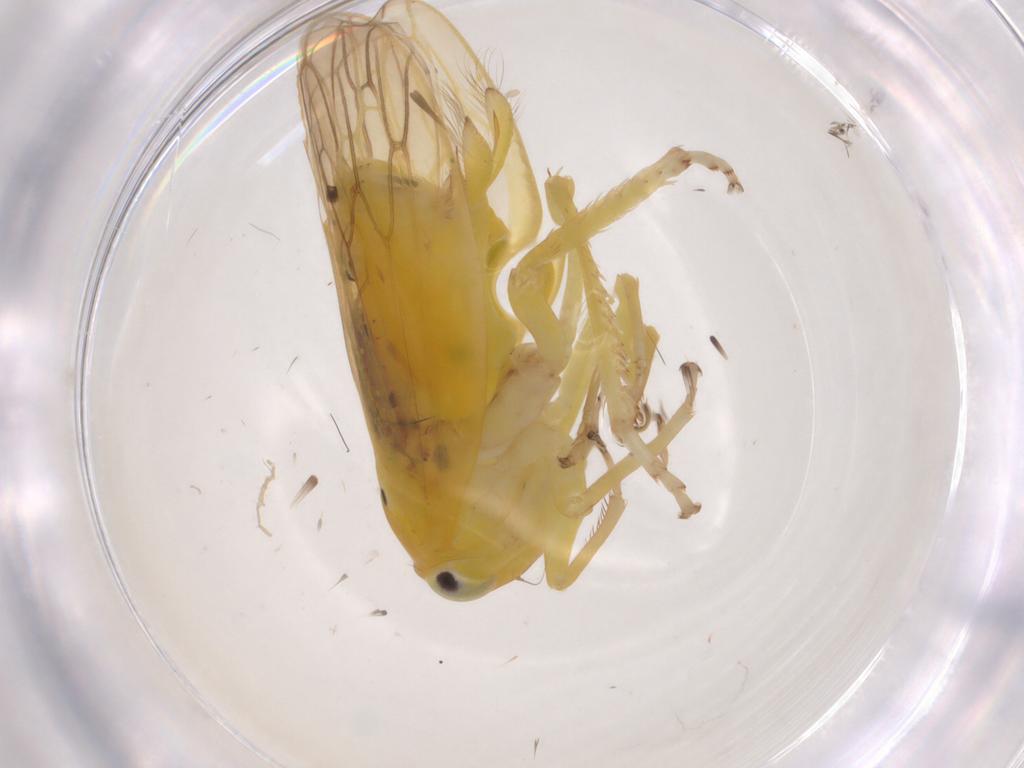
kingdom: Animalia
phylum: Arthropoda
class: Insecta
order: Hemiptera
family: Cicadellidae
